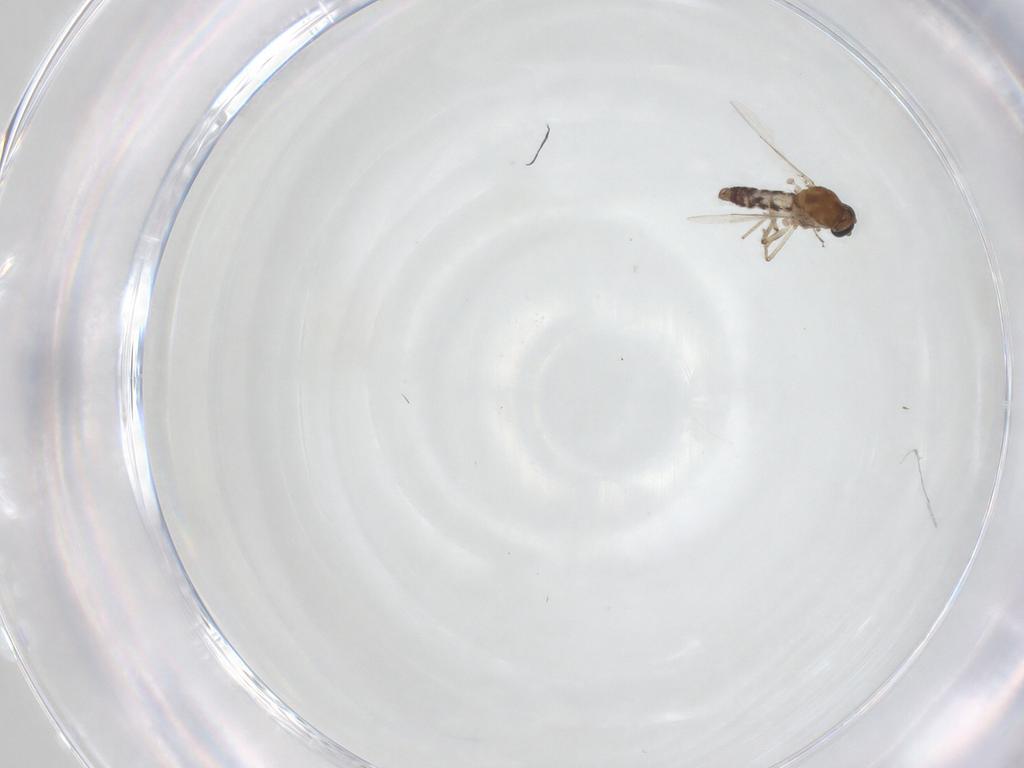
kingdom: Animalia
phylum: Arthropoda
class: Insecta
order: Diptera
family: Ceratopogonidae
